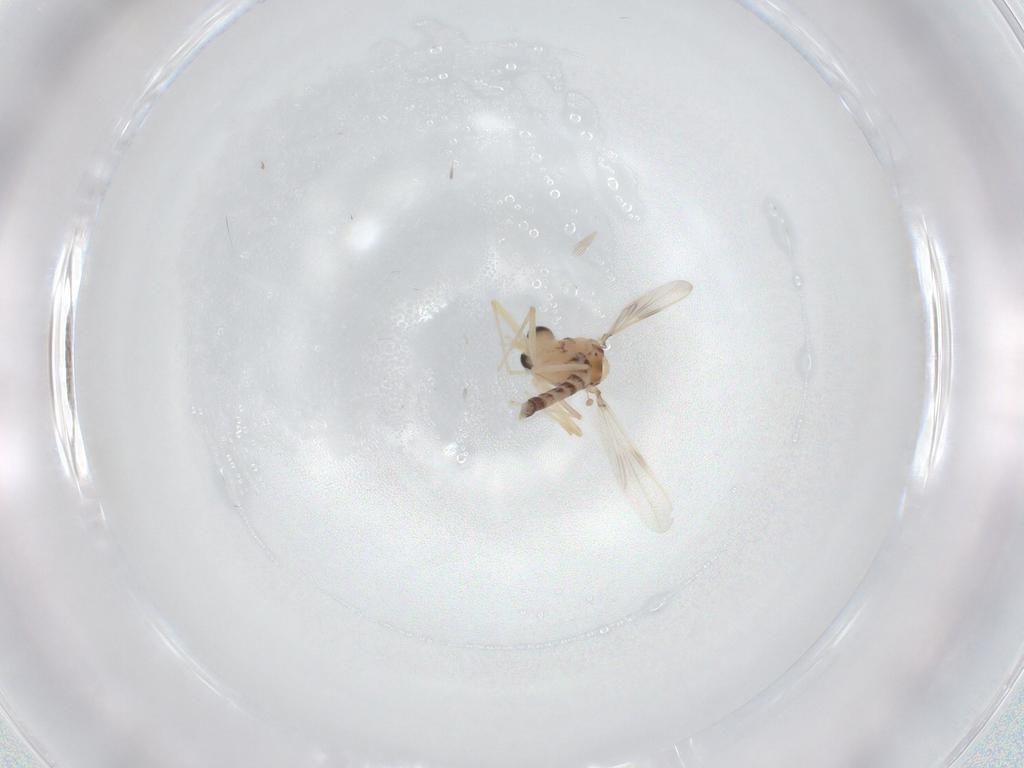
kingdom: Animalia
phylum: Arthropoda
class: Insecta
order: Diptera
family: Chironomidae
